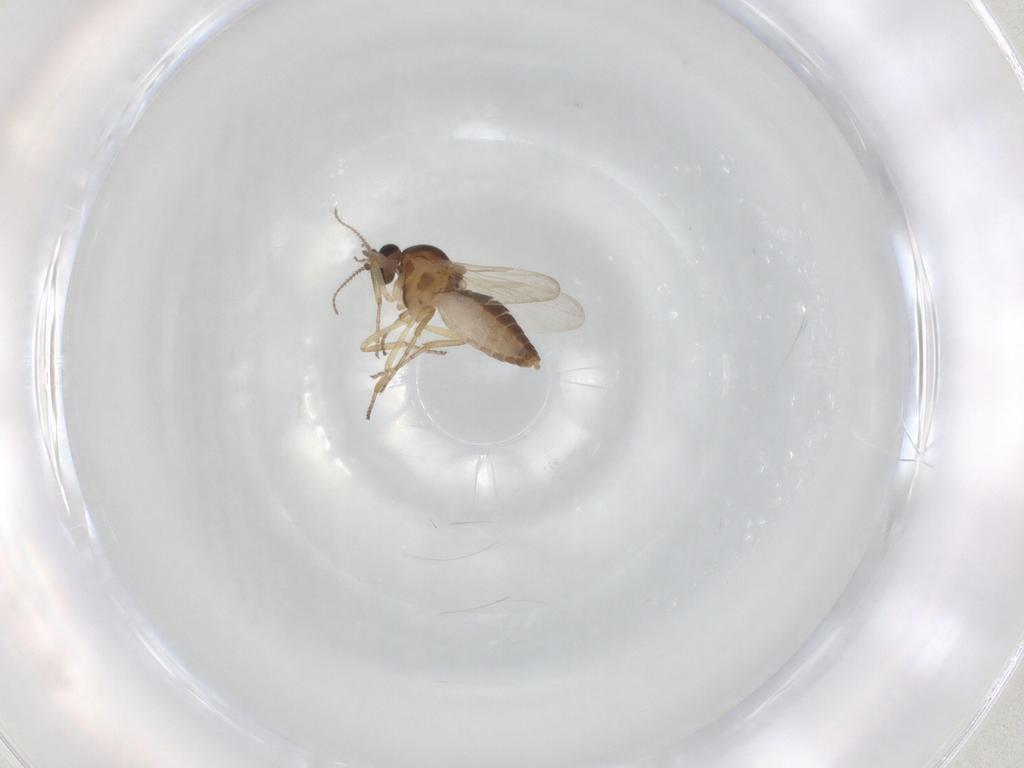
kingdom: Animalia
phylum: Arthropoda
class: Insecta
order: Diptera
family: Ceratopogonidae
